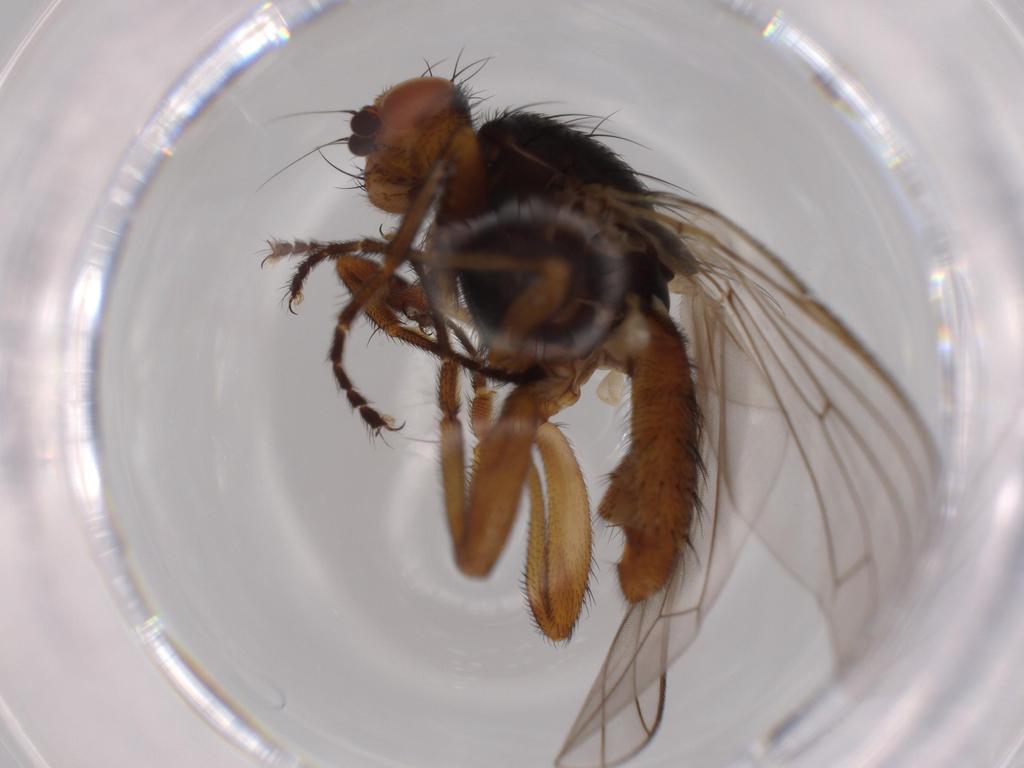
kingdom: Animalia
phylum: Arthropoda
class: Insecta
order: Diptera
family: Heleomyzidae
